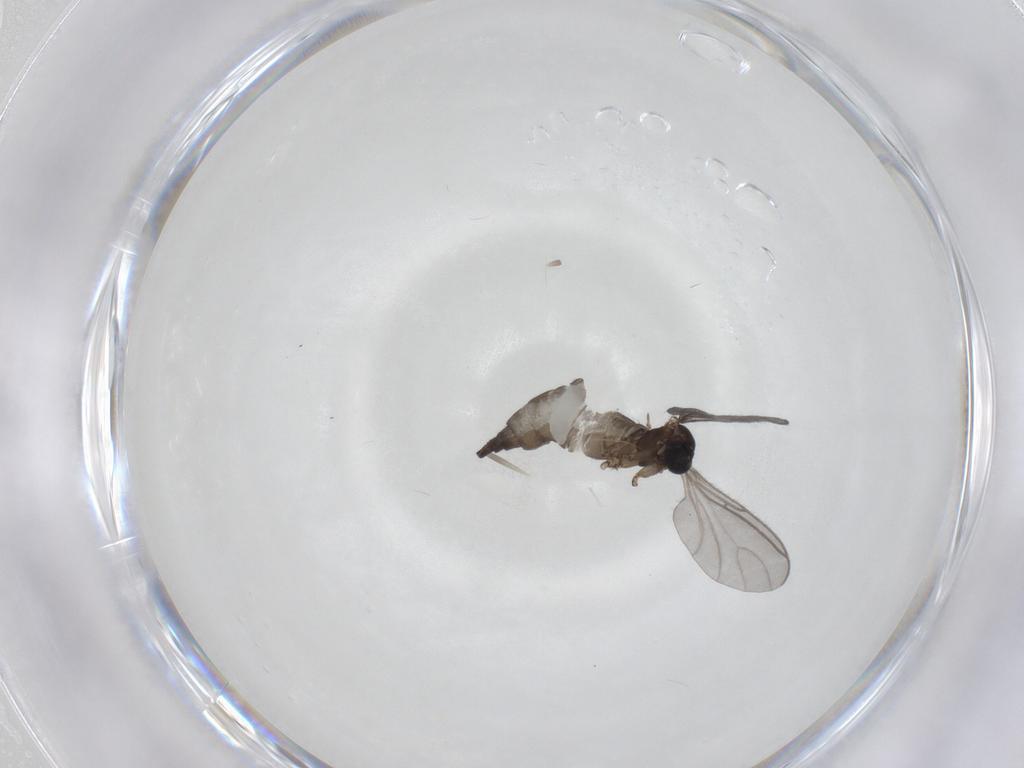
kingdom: Animalia
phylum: Arthropoda
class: Insecta
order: Diptera
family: Sciaridae
